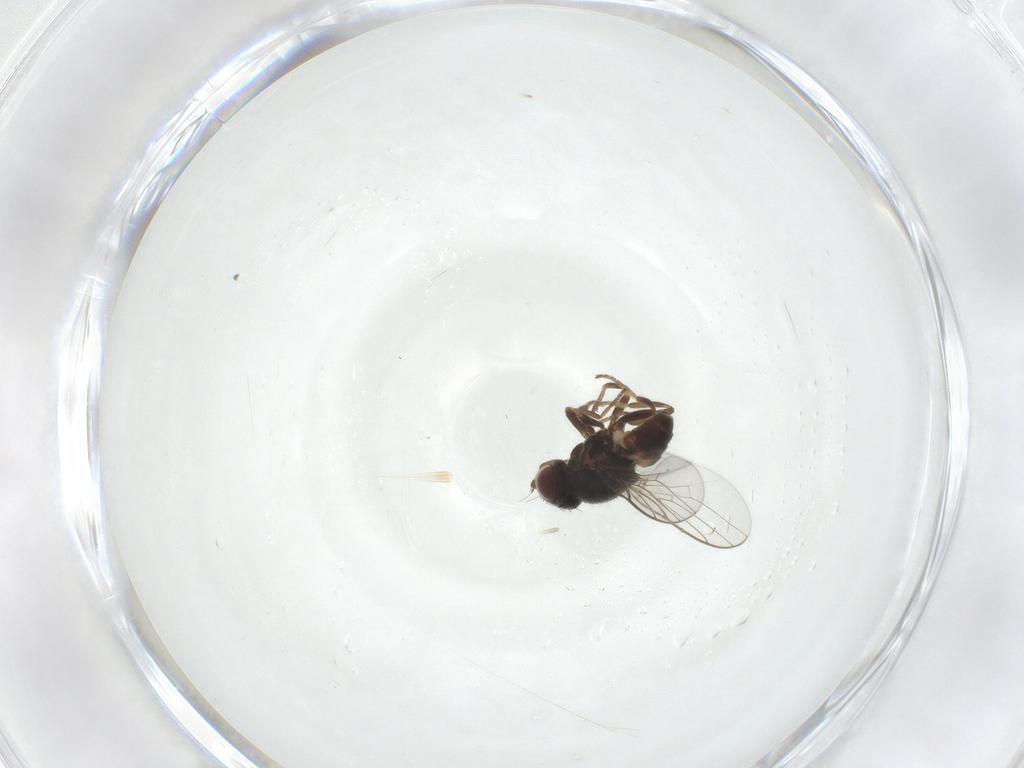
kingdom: Animalia
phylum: Arthropoda
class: Insecta
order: Diptera
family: Chloropidae
